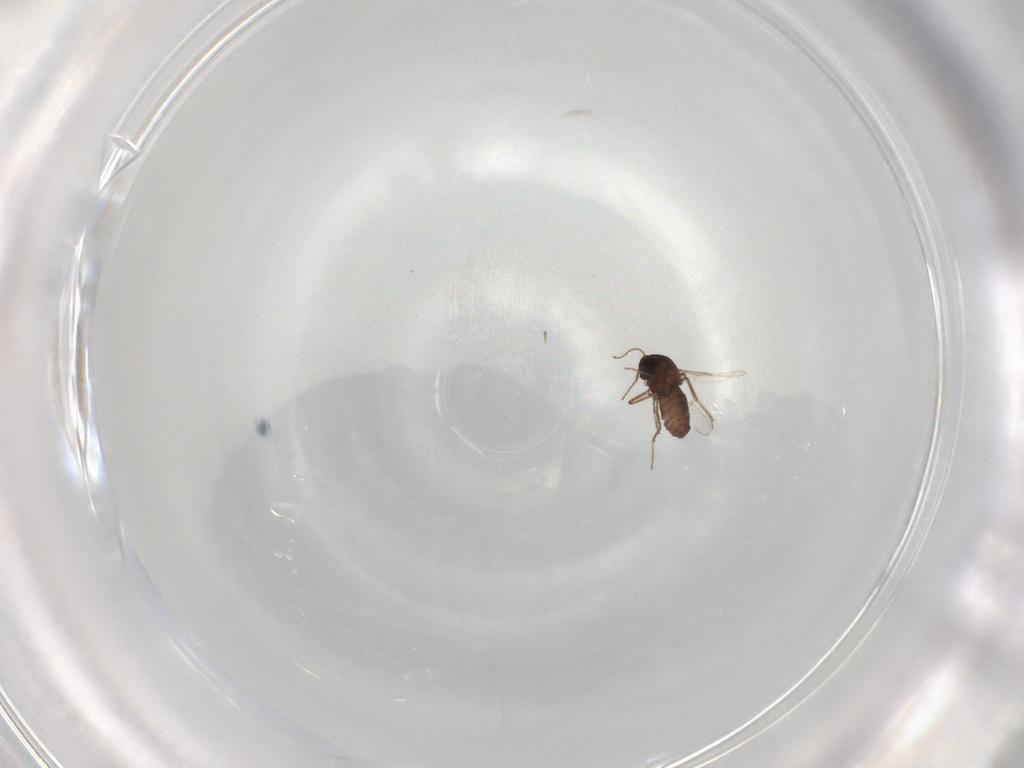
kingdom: Animalia
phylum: Arthropoda
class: Insecta
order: Diptera
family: Ceratopogonidae
